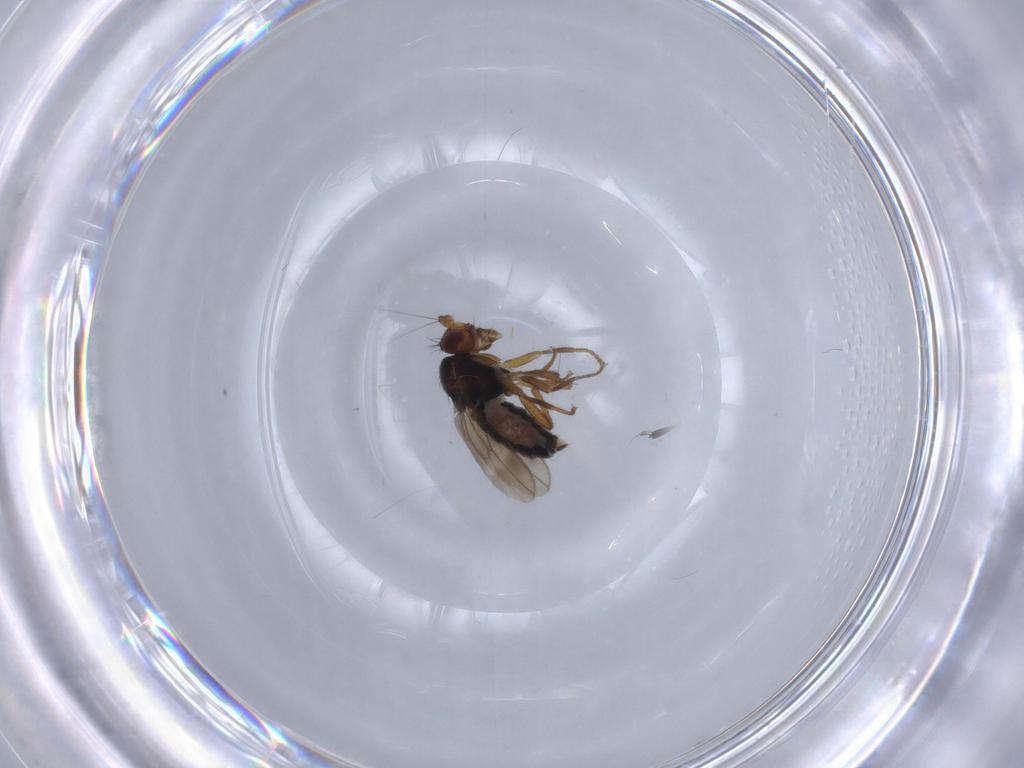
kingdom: Animalia
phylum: Arthropoda
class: Insecta
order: Diptera
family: Sphaeroceridae
